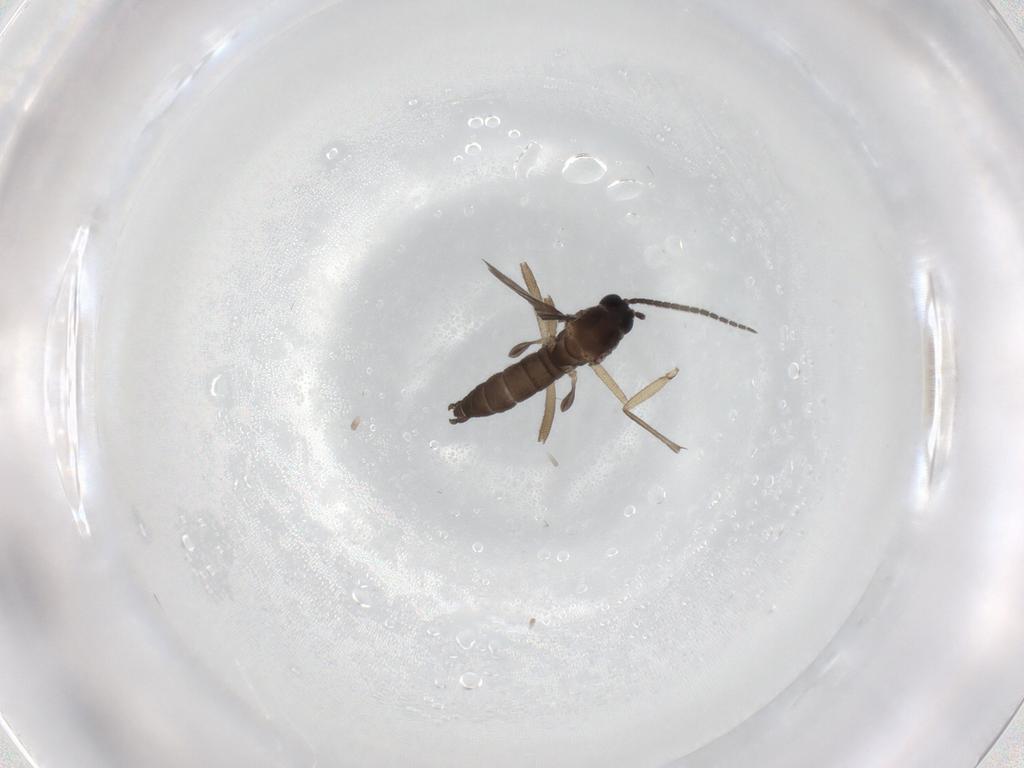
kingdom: Animalia
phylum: Arthropoda
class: Insecta
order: Diptera
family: Sciaridae
